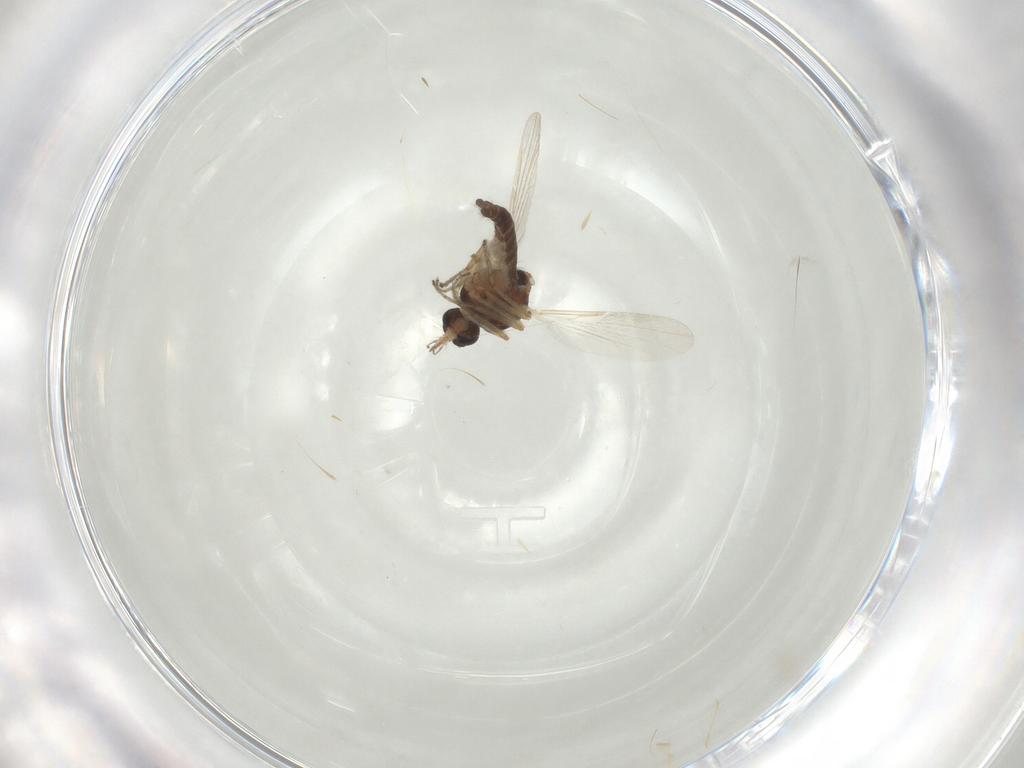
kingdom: Animalia
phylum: Arthropoda
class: Insecta
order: Diptera
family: Ceratopogonidae
